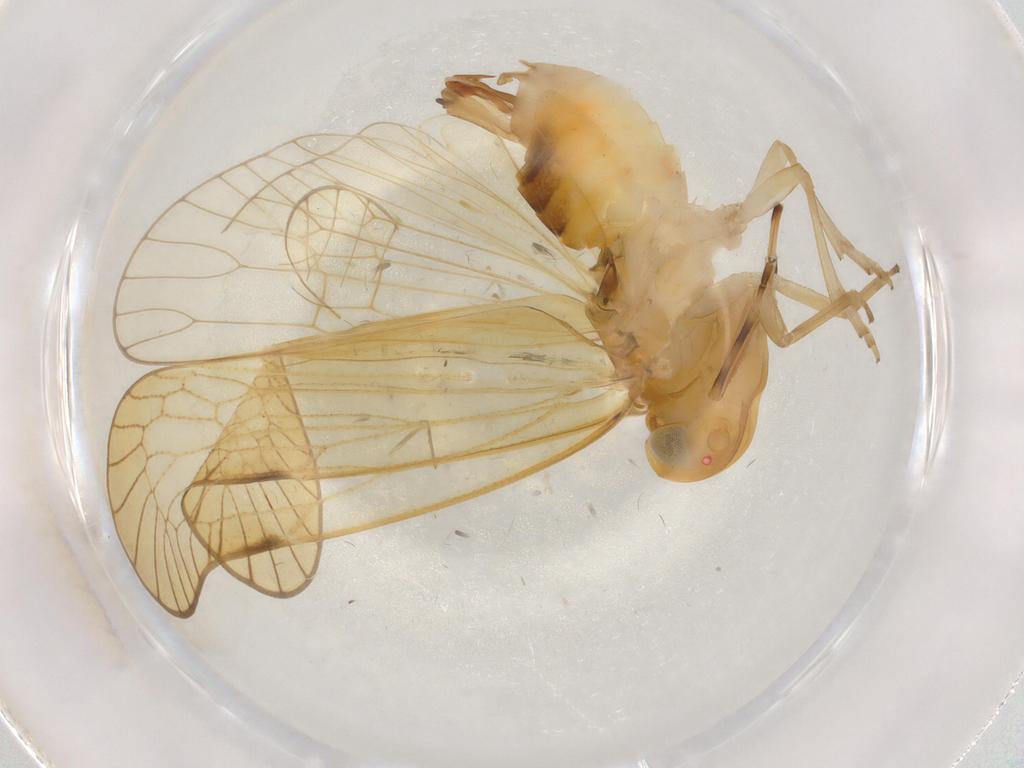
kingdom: Animalia
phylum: Arthropoda
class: Insecta
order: Hemiptera
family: Cixiidae
